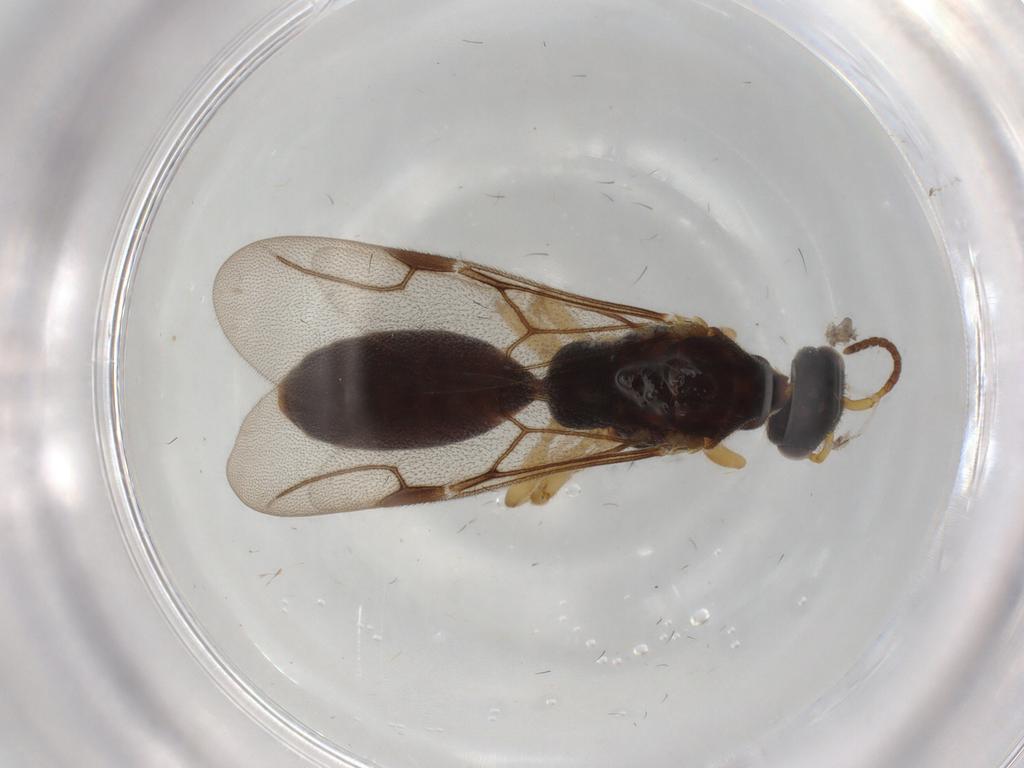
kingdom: Animalia
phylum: Arthropoda
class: Insecta
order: Hymenoptera
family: Bethylidae
